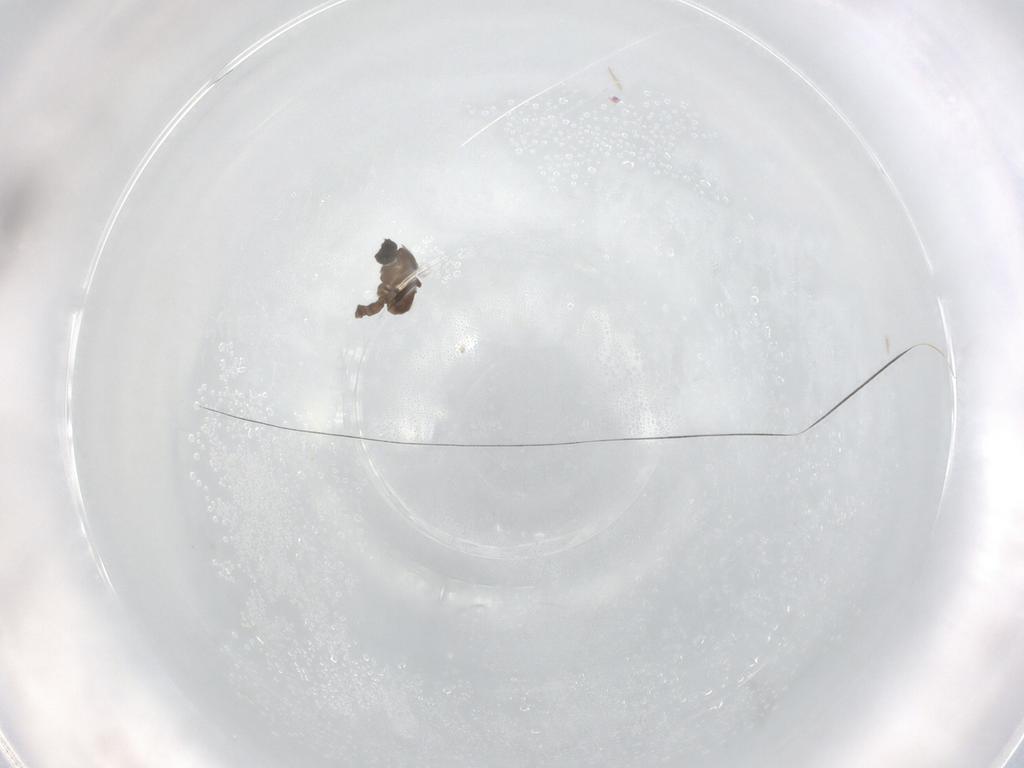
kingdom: Animalia
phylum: Arthropoda
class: Insecta
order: Diptera
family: Cecidomyiidae
